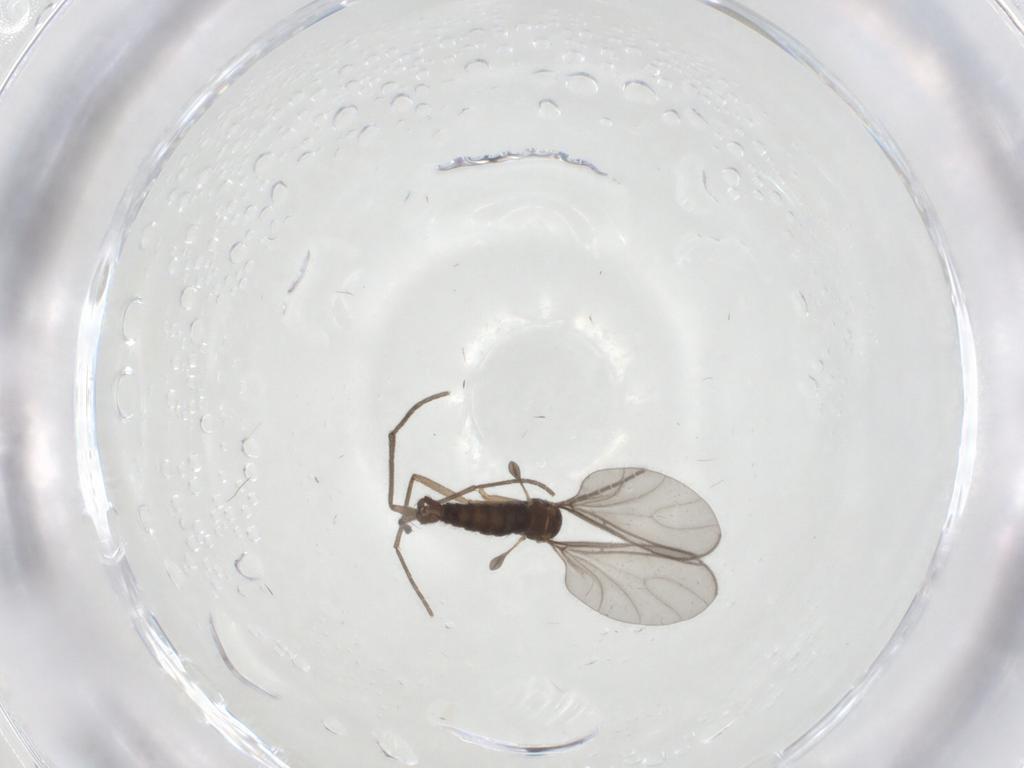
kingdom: Animalia
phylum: Arthropoda
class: Insecta
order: Diptera
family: Sciaridae
